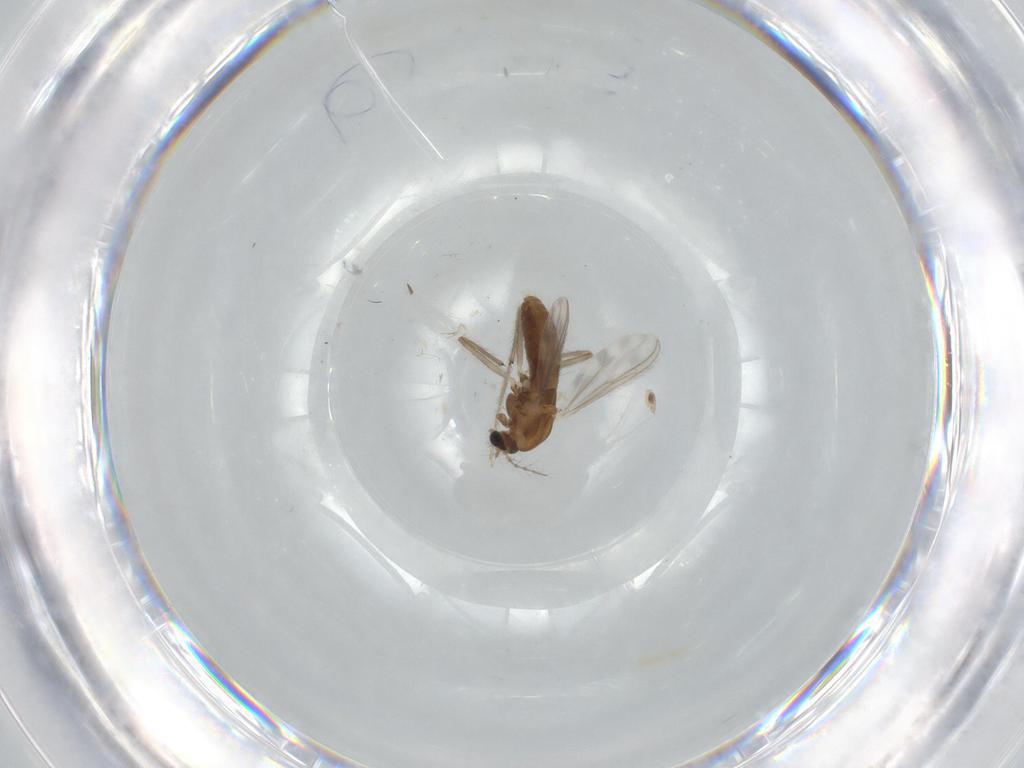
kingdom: Animalia
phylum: Arthropoda
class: Insecta
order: Diptera
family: Chironomidae
